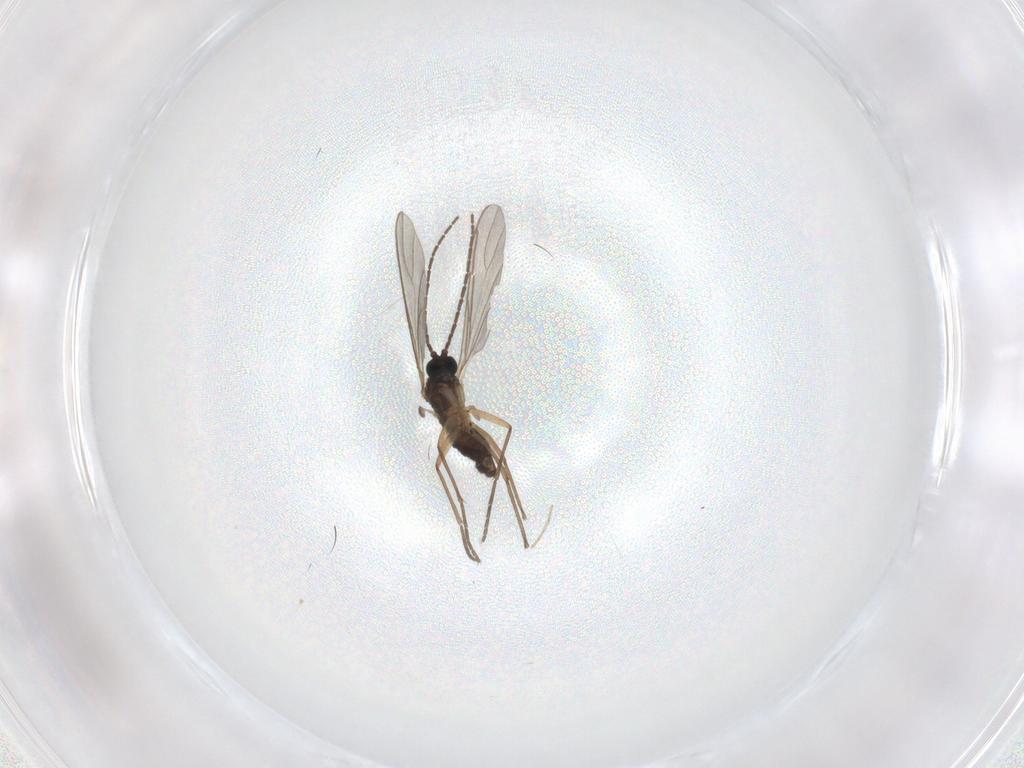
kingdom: Animalia
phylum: Arthropoda
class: Insecta
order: Diptera
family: Sciaridae
